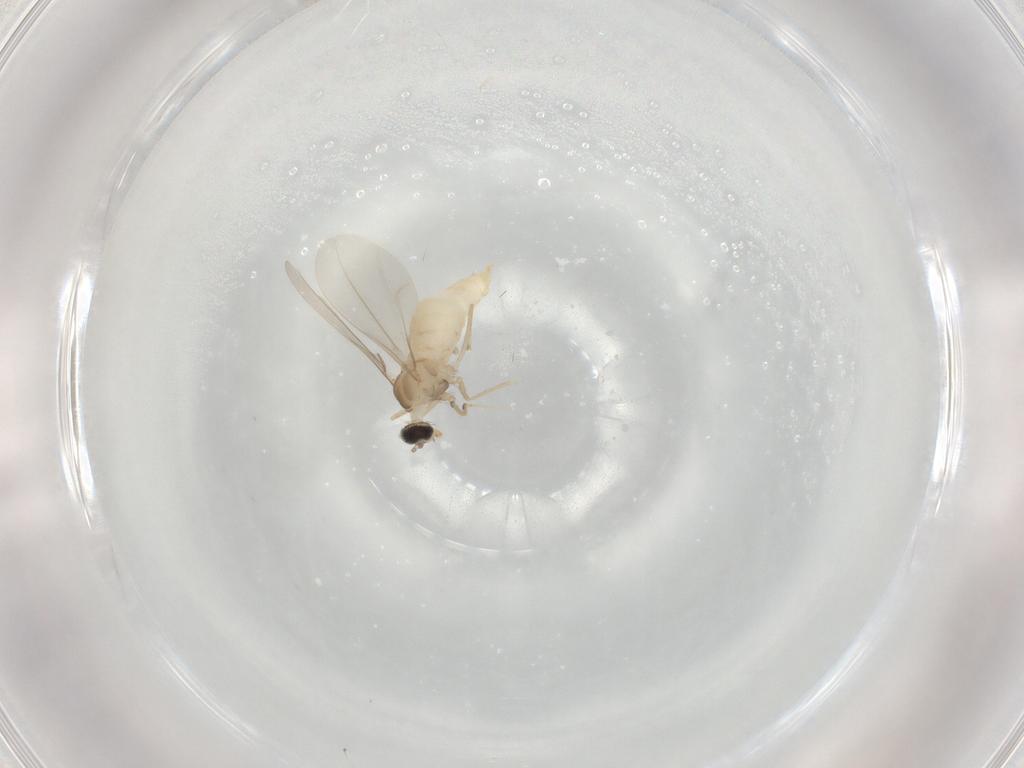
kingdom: Animalia
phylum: Arthropoda
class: Insecta
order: Diptera
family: Cecidomyiidae
